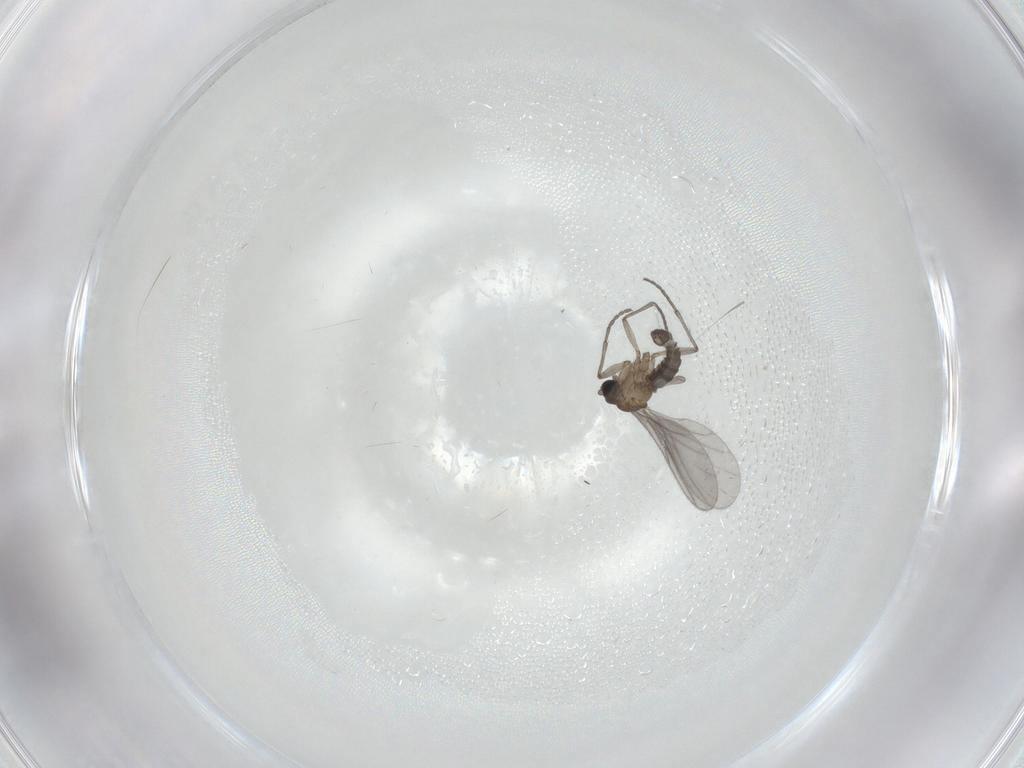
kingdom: Animalia
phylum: Arthropoda
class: Insecta
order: Diptera
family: Sciaridae
